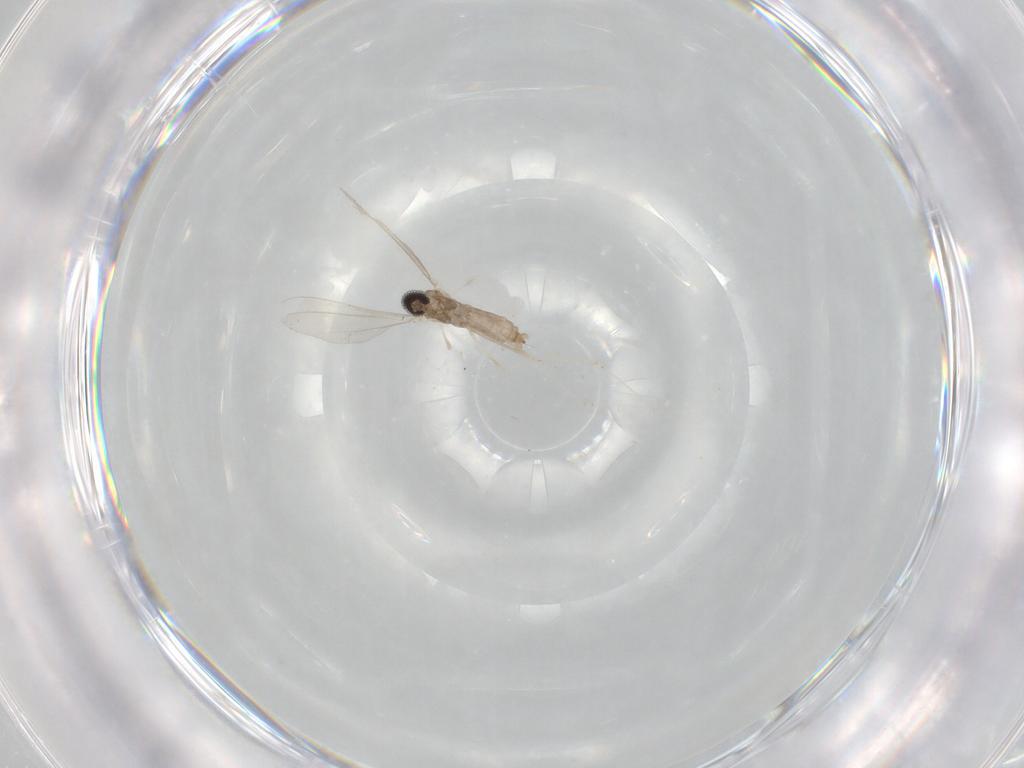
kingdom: Animalia
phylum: Arthropoda
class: Insecta
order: Diptera
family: Cecidomyiidae
